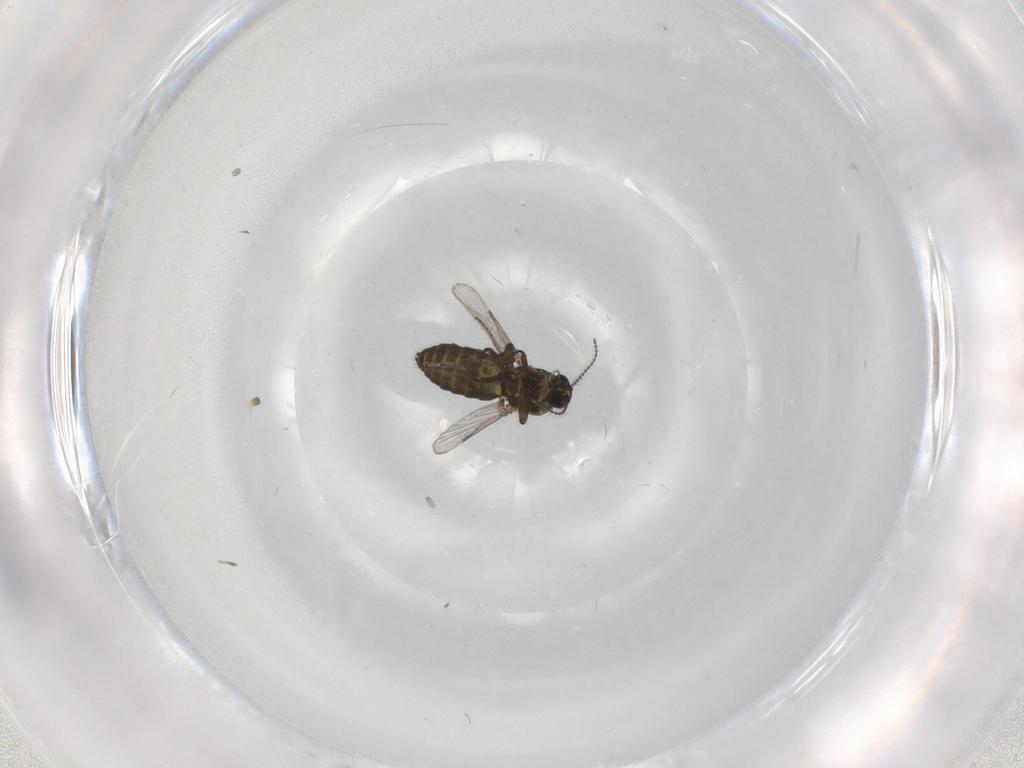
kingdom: Animalia
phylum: Arthropoda
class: Insecta
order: Diptera
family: Ceratopogonidae
